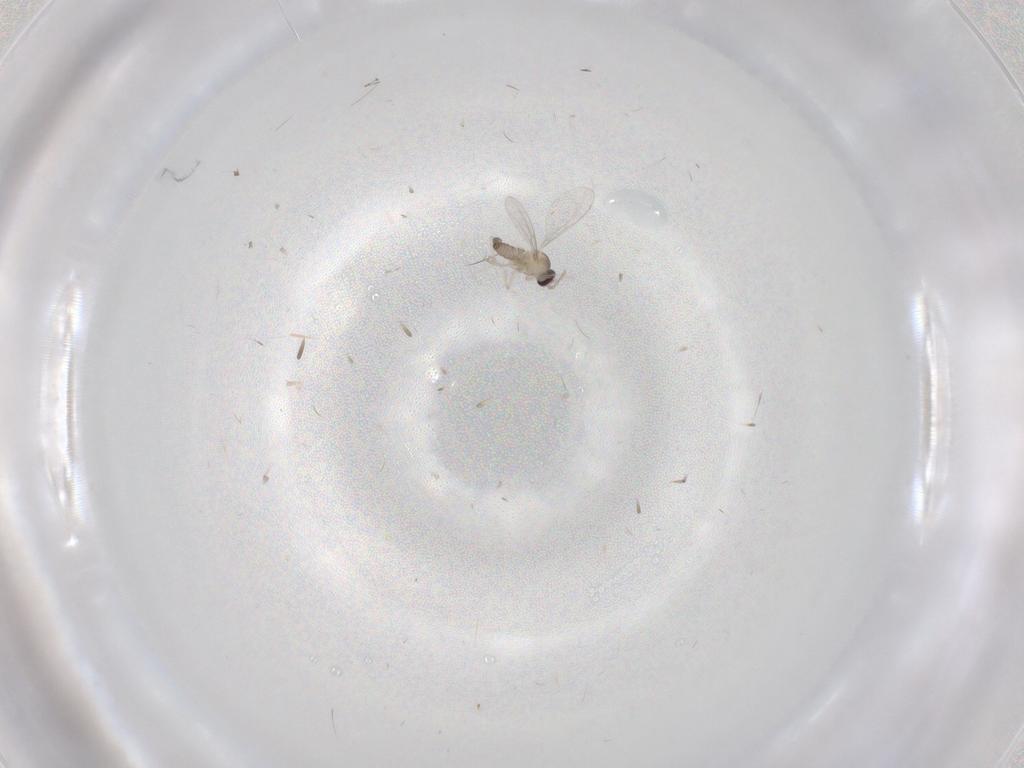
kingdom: Animalia
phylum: Arthropoda
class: Insecta
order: Diptera
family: Cecidomyiidae
